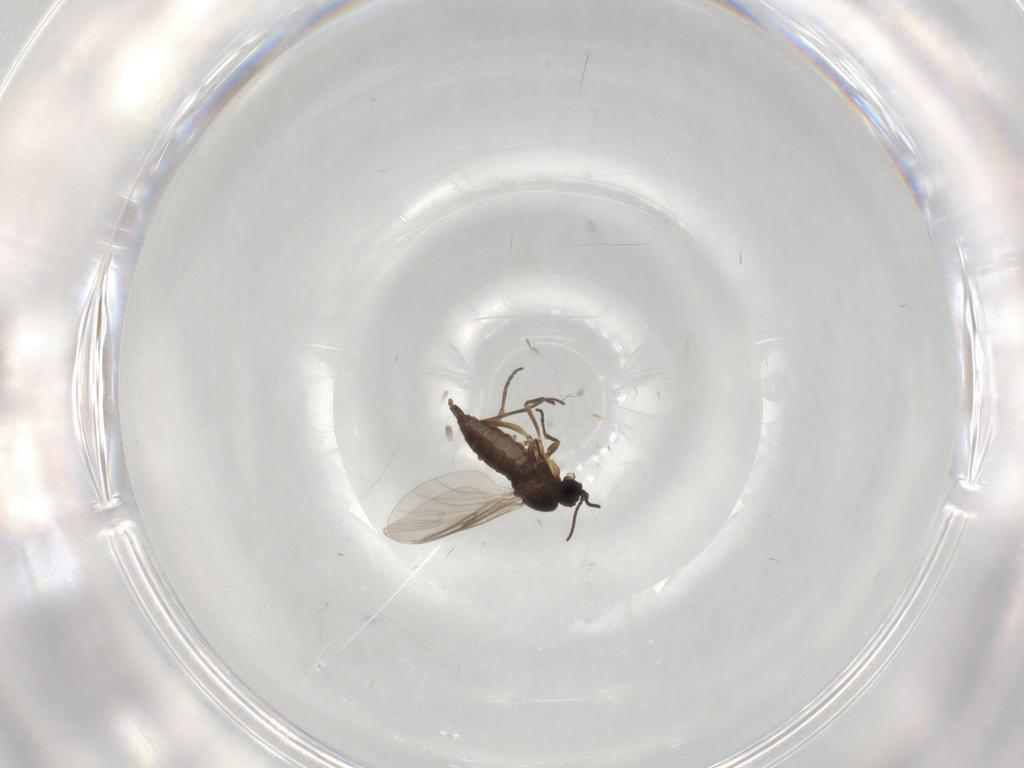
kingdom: Animalia
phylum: Arthropoda
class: Insecta
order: Diptera
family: Sciaridae
